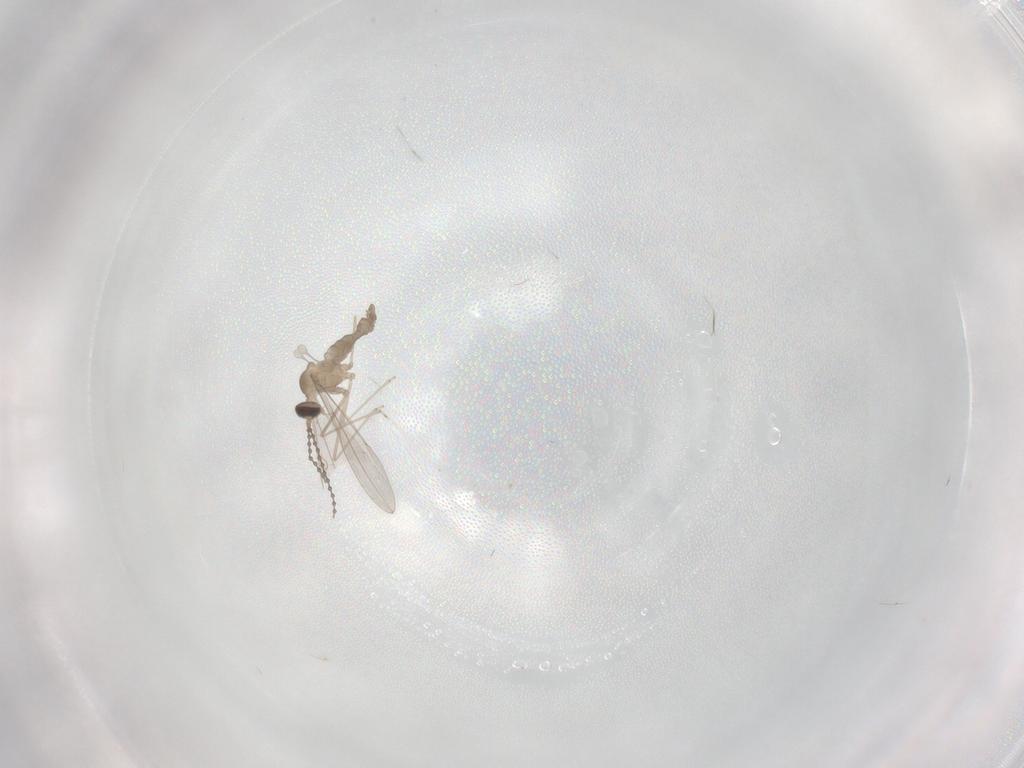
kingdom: Animalia
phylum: Arthropoda
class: Insecta
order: Diptera
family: Cecidomyiidae
